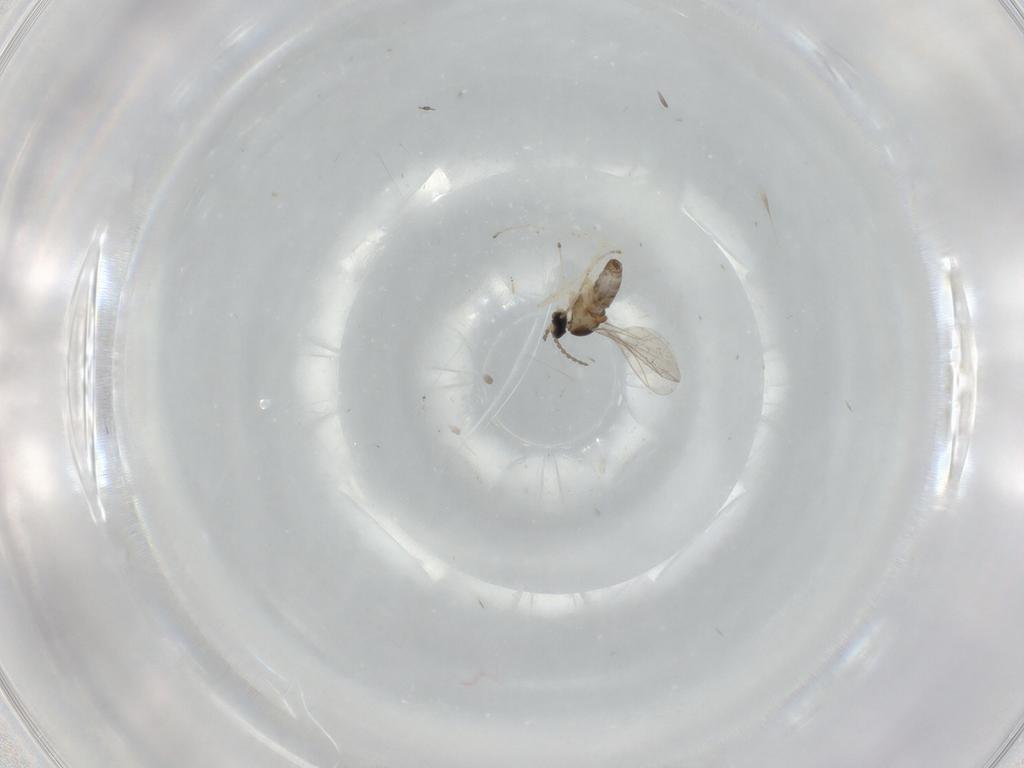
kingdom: Animalia
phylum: Arthropoda
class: Insecta
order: Diptera
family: Cecidomyiidae
